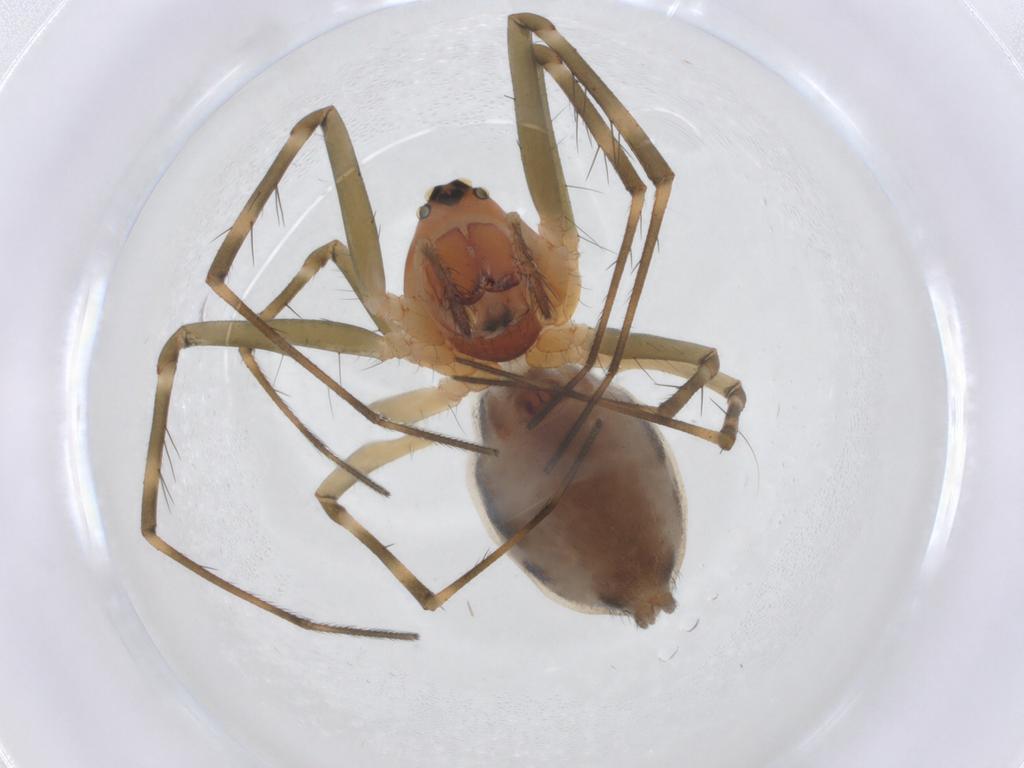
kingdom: Animalia
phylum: Arthropoda
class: Arachnida
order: Araneae
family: Linyphiidae
